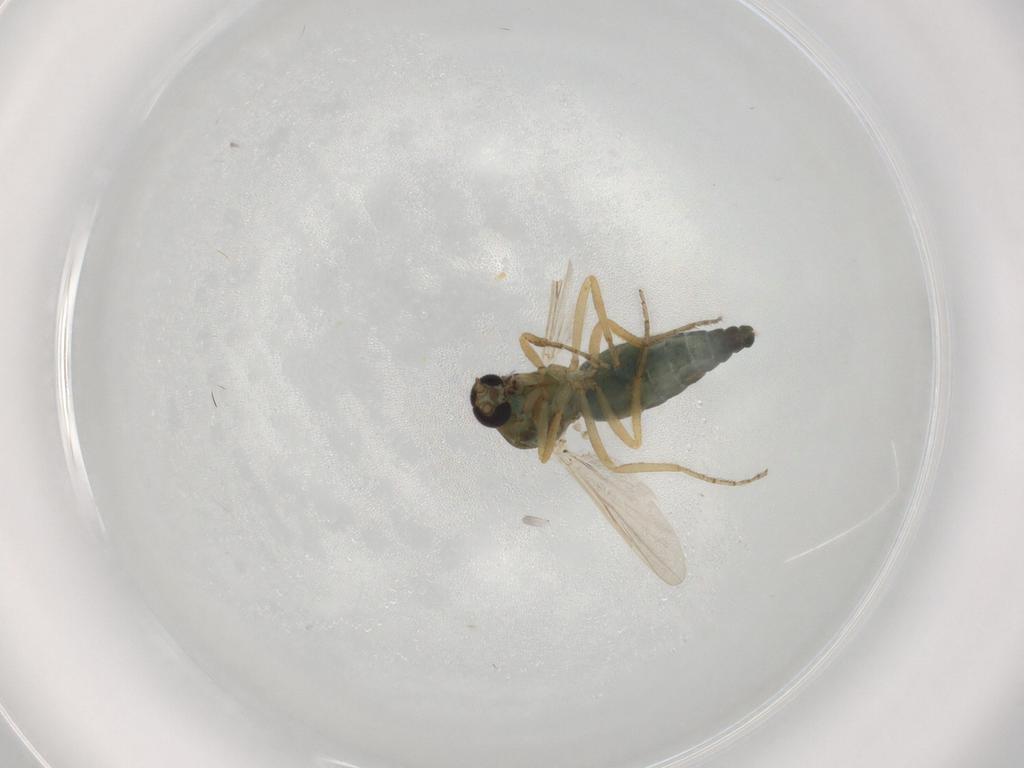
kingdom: Animalia
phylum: Arthropoda
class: Insecta
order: Diptera
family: Ceratopogonidae
